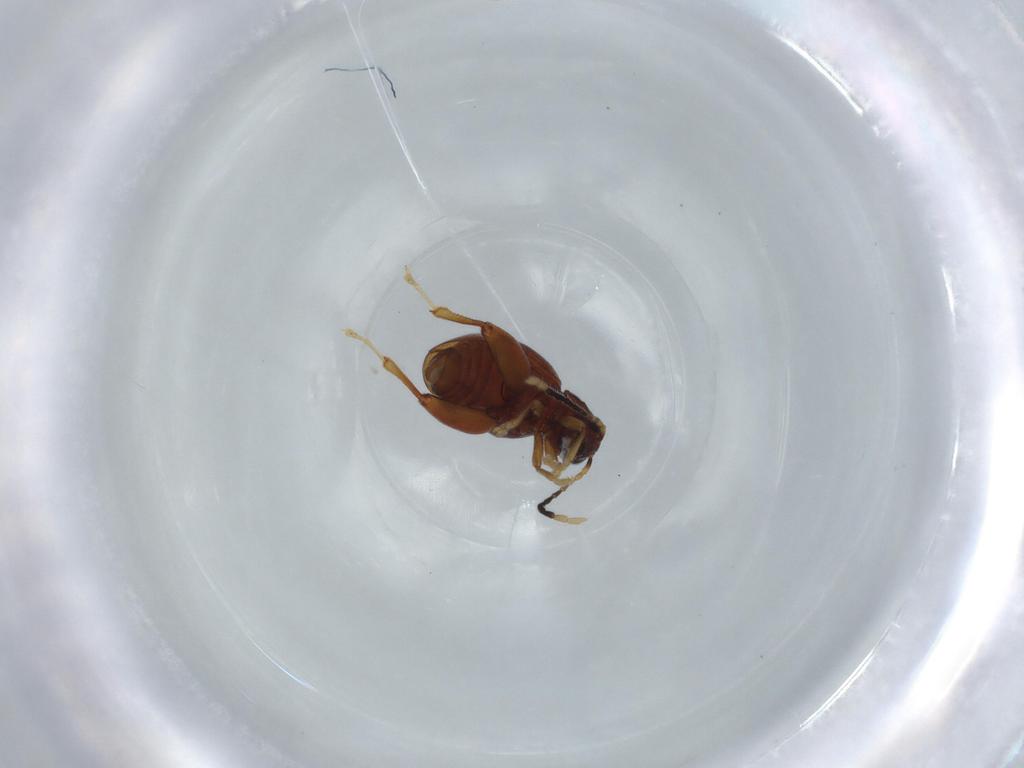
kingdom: Animalia
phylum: Arthropoda
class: Insecta
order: Coleoptera
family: Chrysomelidae
